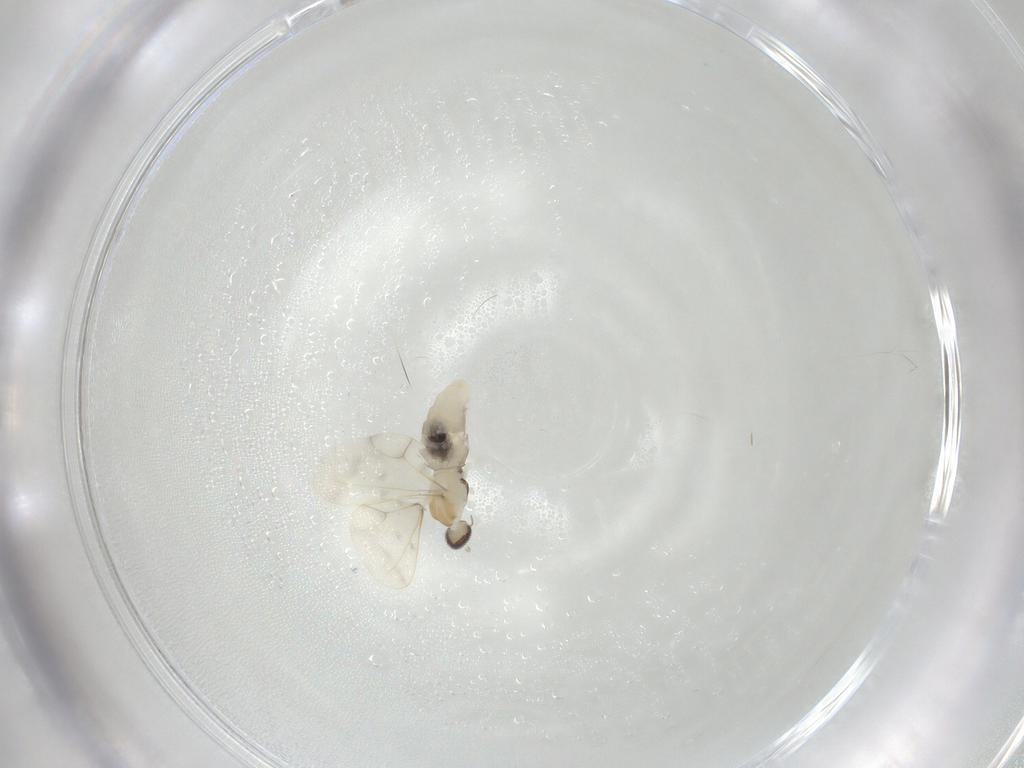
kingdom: Animalia
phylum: Arthropoda
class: Insecta
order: Diptera
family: Cecidomyiidae
